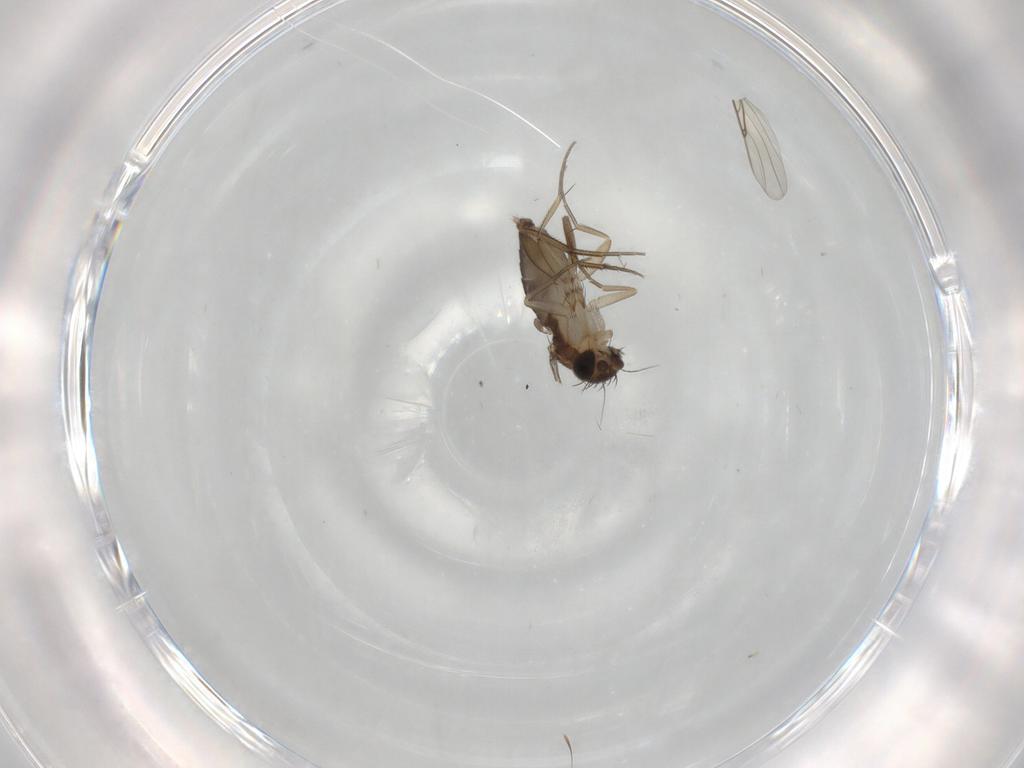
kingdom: Animalia
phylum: Arthropoda
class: Insecta
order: Diptera
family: Phoridae
